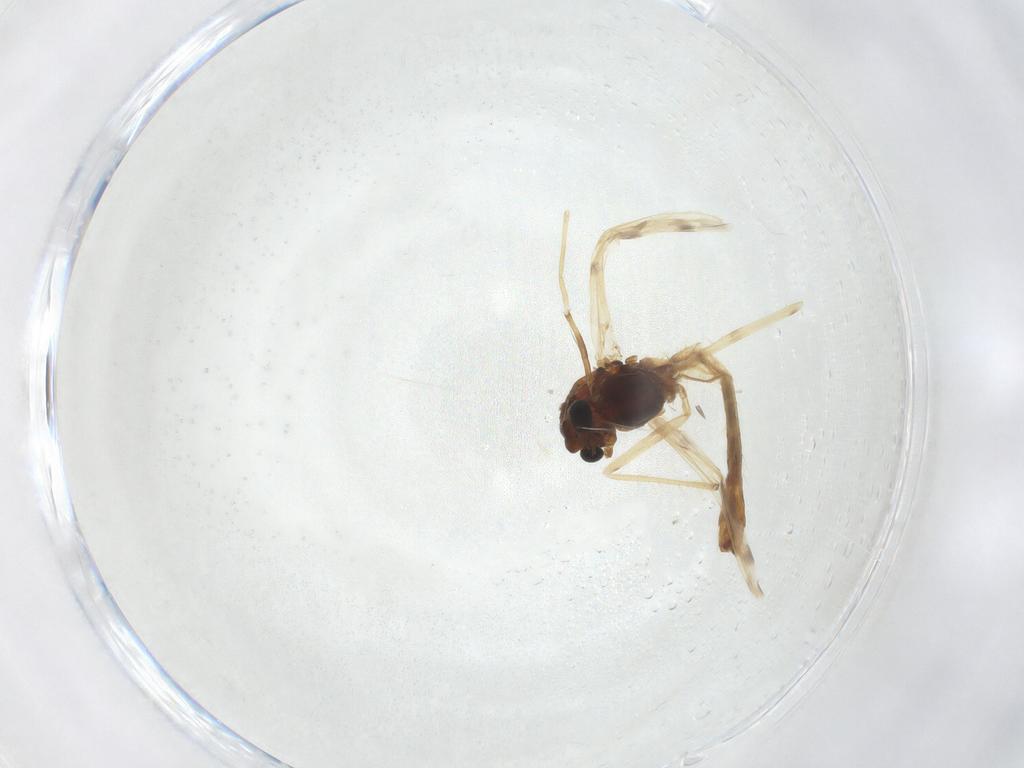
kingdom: Animalia
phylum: Arthropoda
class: Insecta
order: Diptera
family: Chironomidae
